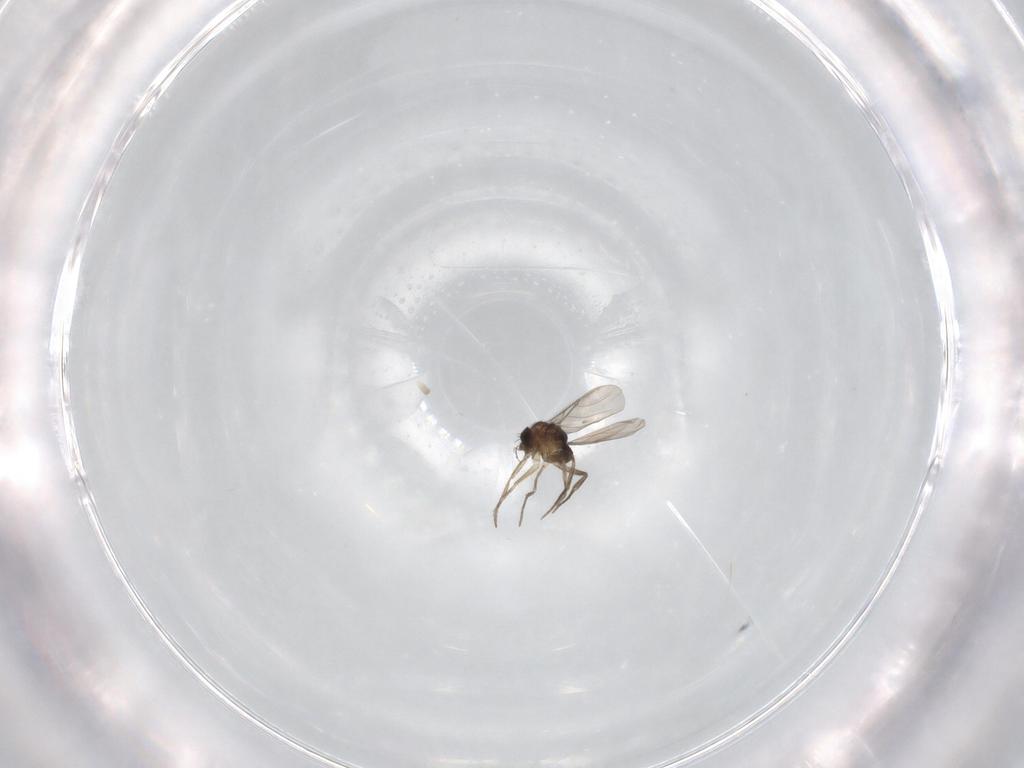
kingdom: Animalia
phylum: Arthropoda
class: Insecta
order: Diptera
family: Phoridae
